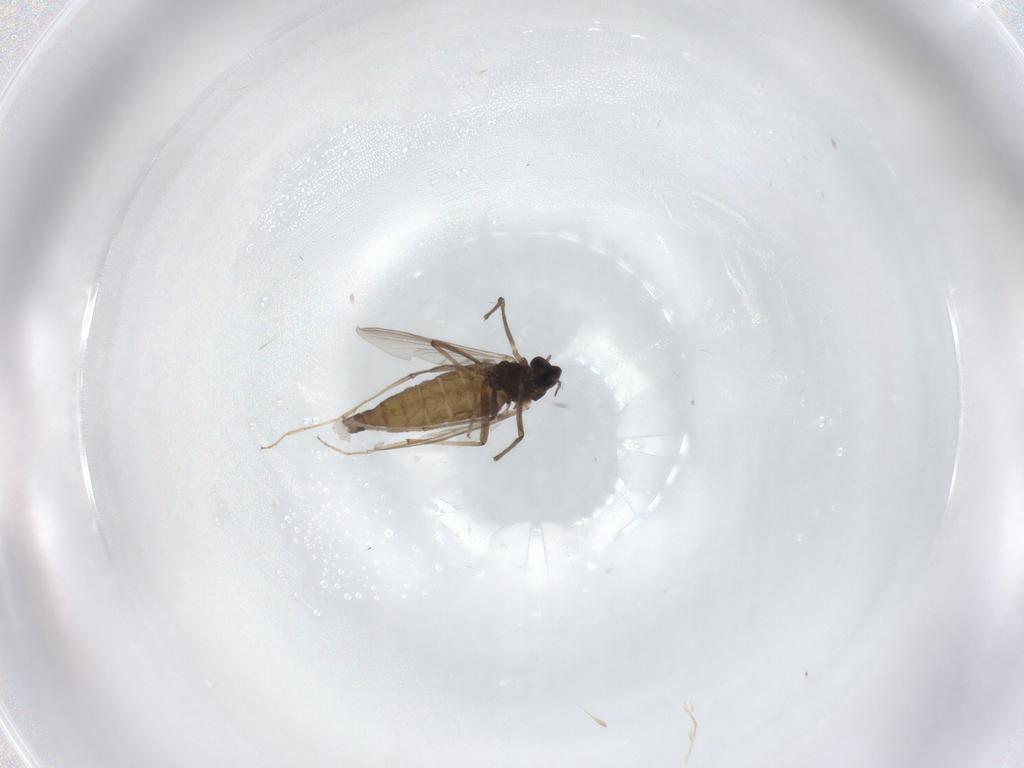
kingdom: Animalia
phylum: Arthropoda
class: Insecta
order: Diptera
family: Chironomidae
